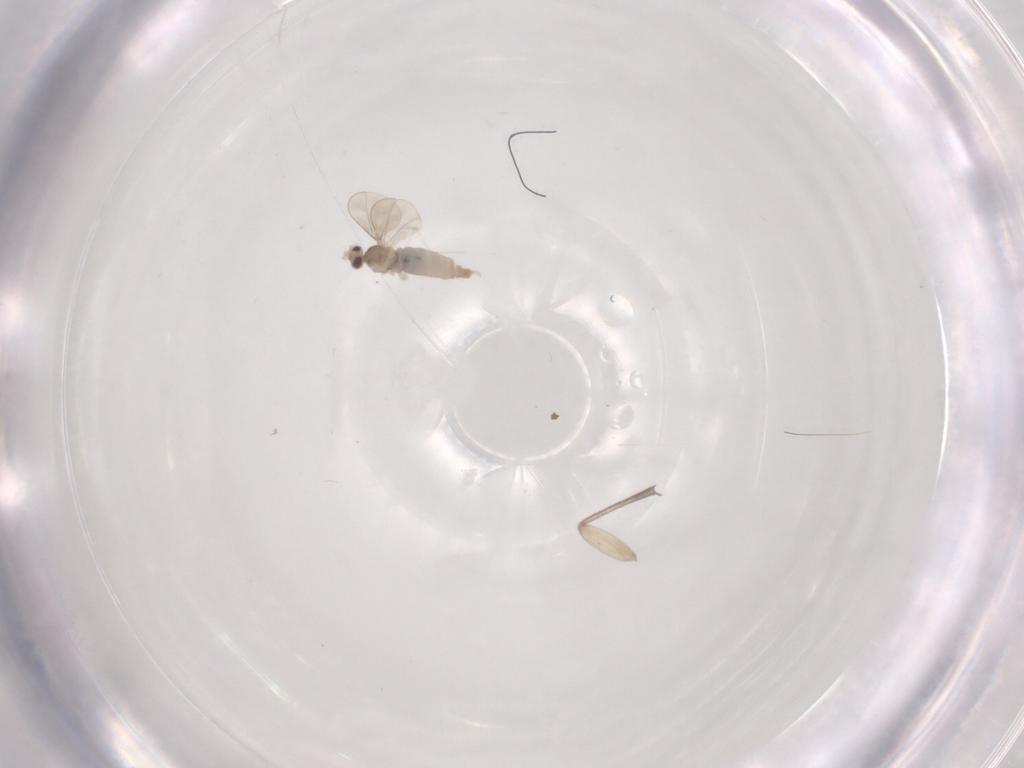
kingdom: Animalia
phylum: Arthropoda
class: Insecta
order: Diptera
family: Cecidomyiidae
